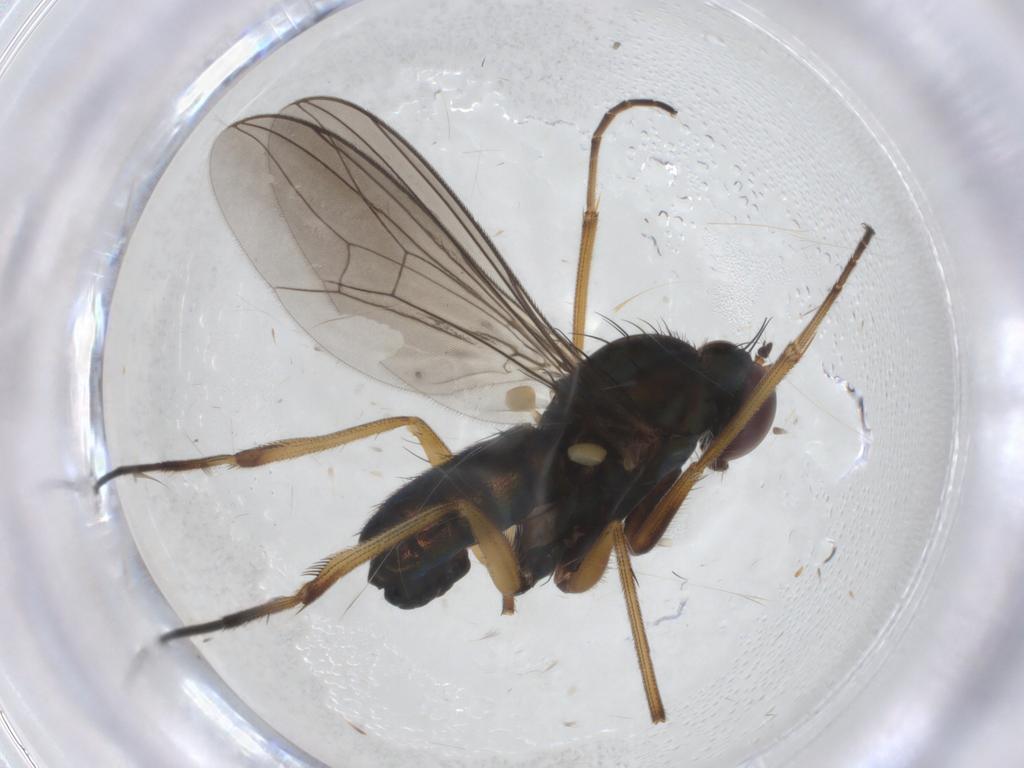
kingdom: Animalia
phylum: Arthropoda
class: Insecta
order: Diptera
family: Dolichopodidae
